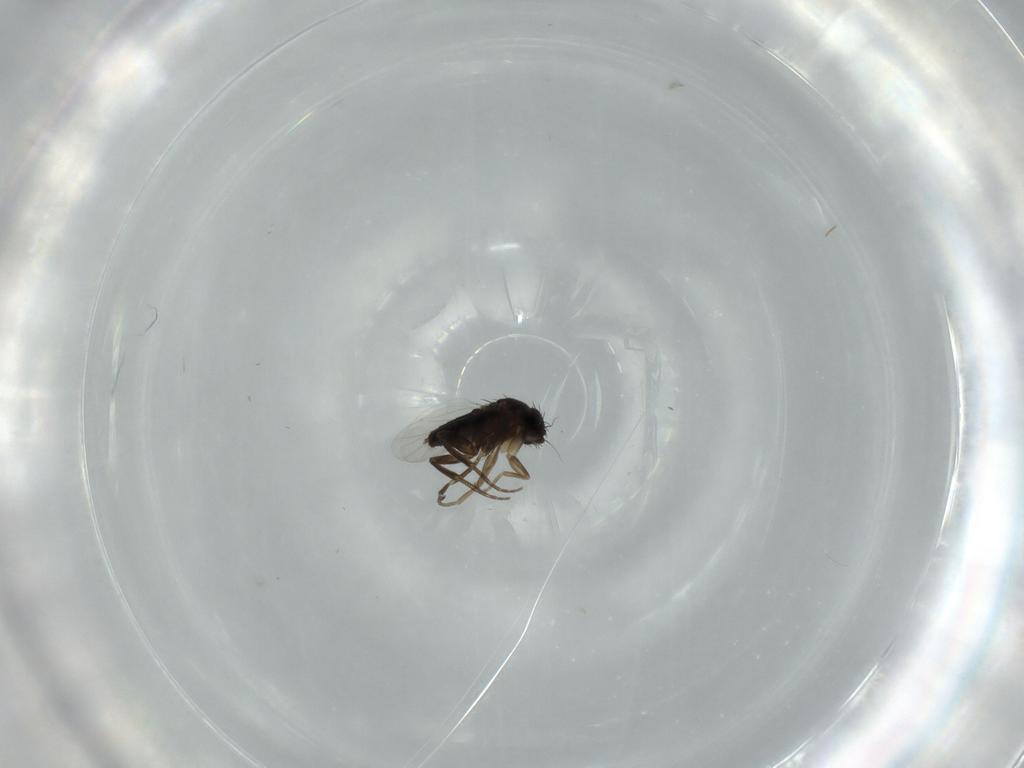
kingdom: Animalia
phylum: Arthropoda
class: Insecta
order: Diptera
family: Phoridae
